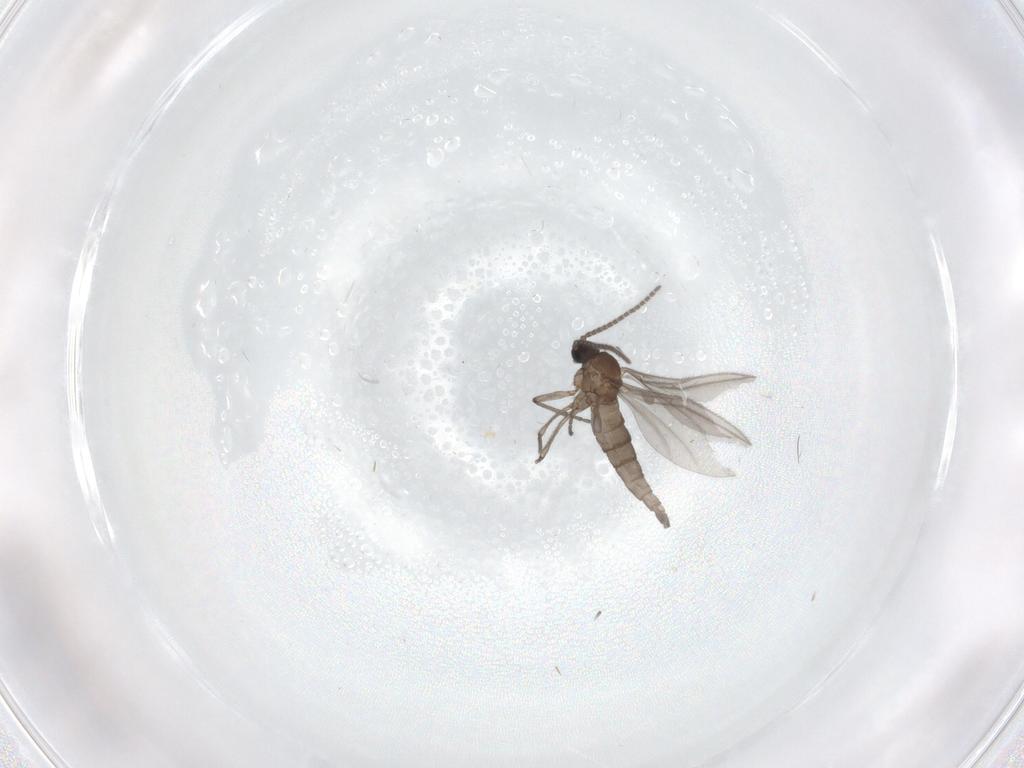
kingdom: Animalia
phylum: Arthropoda
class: Insecta
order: Diptera
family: Sciaridae
